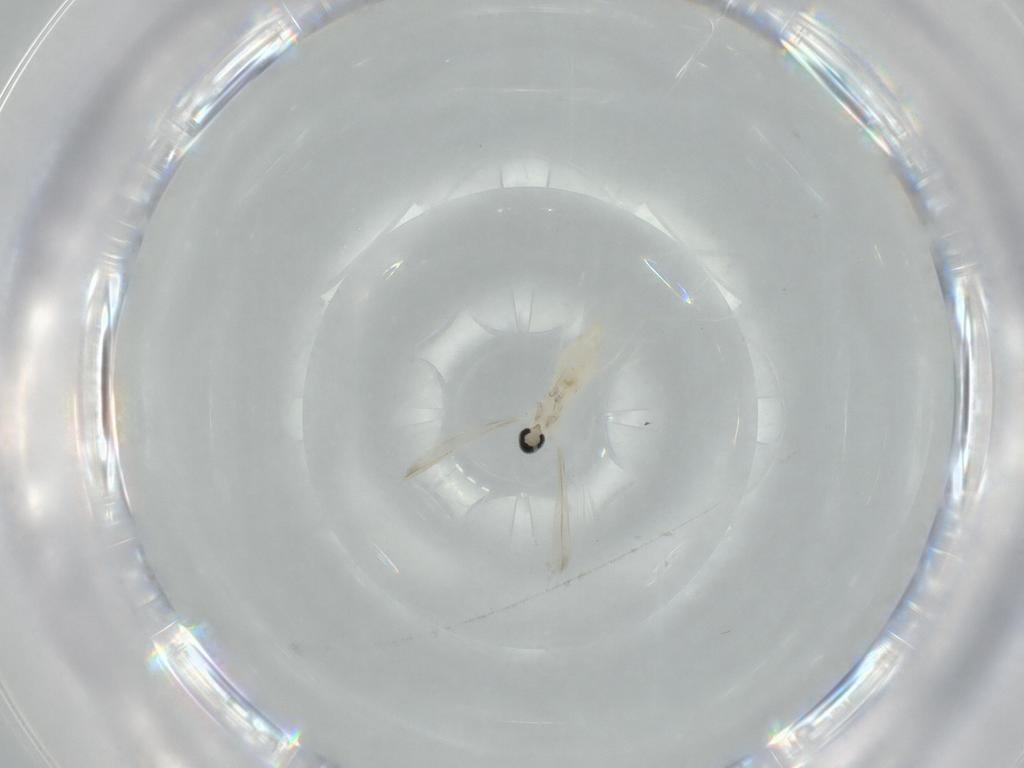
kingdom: Animalia
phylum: Arthropoda
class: Insecta
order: Diptera
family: Cecidomyiidae
